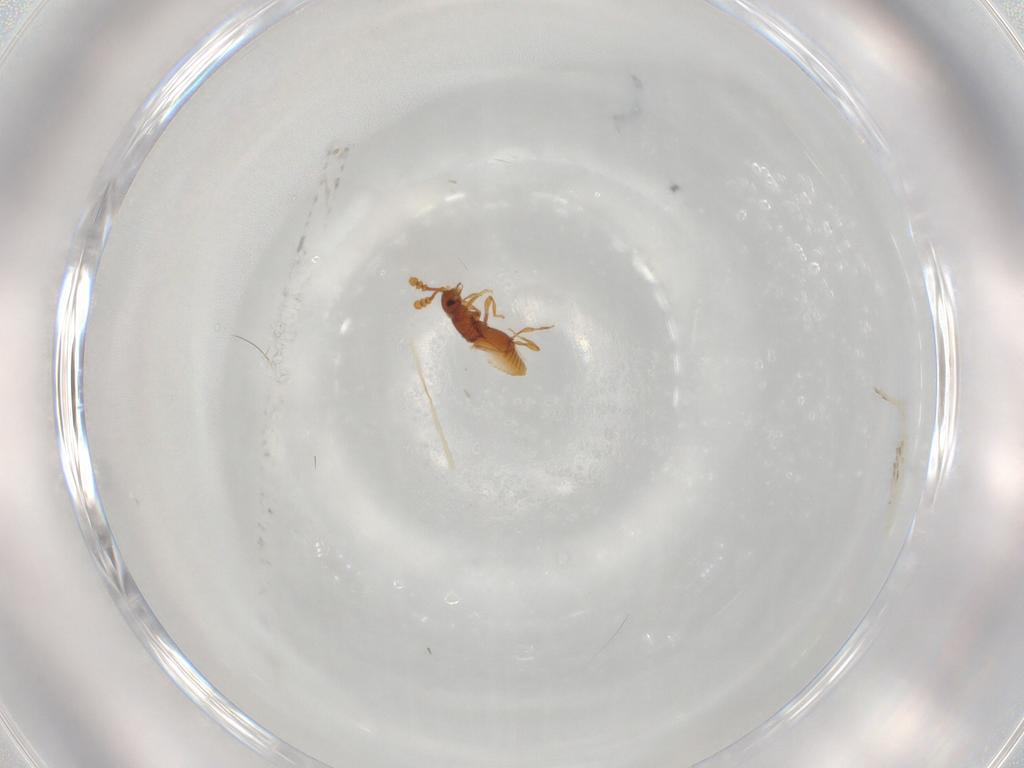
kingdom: Animalia
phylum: Arthropoda
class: Insecta
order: Coleoptera
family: Staphylinidae
